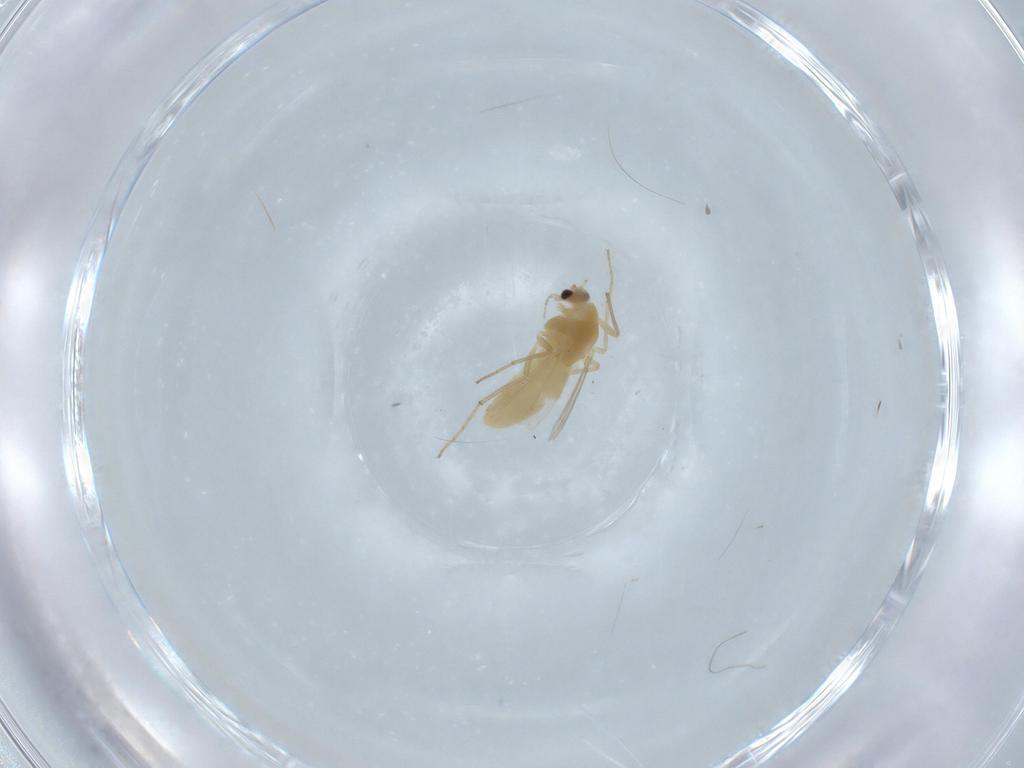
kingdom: Animalia
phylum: Arthropoda
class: Insecta
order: Diptera
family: Chironomidae
